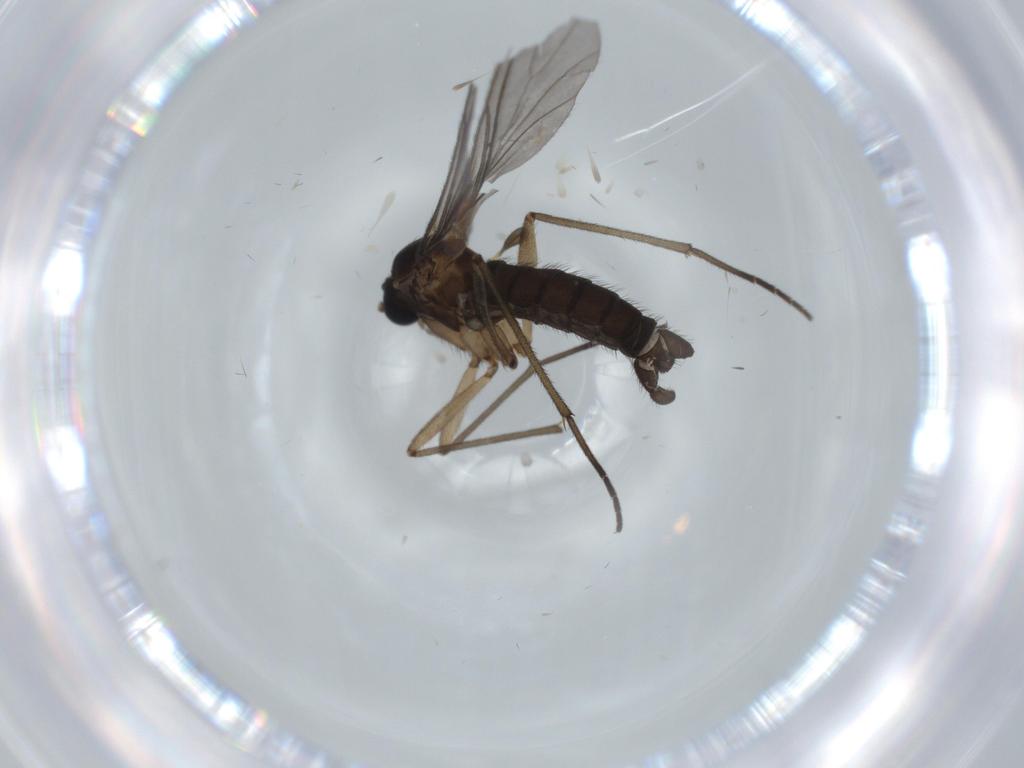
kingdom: Animalia
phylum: Arthropoda
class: Insecta
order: Diptera
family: Sciaridae
